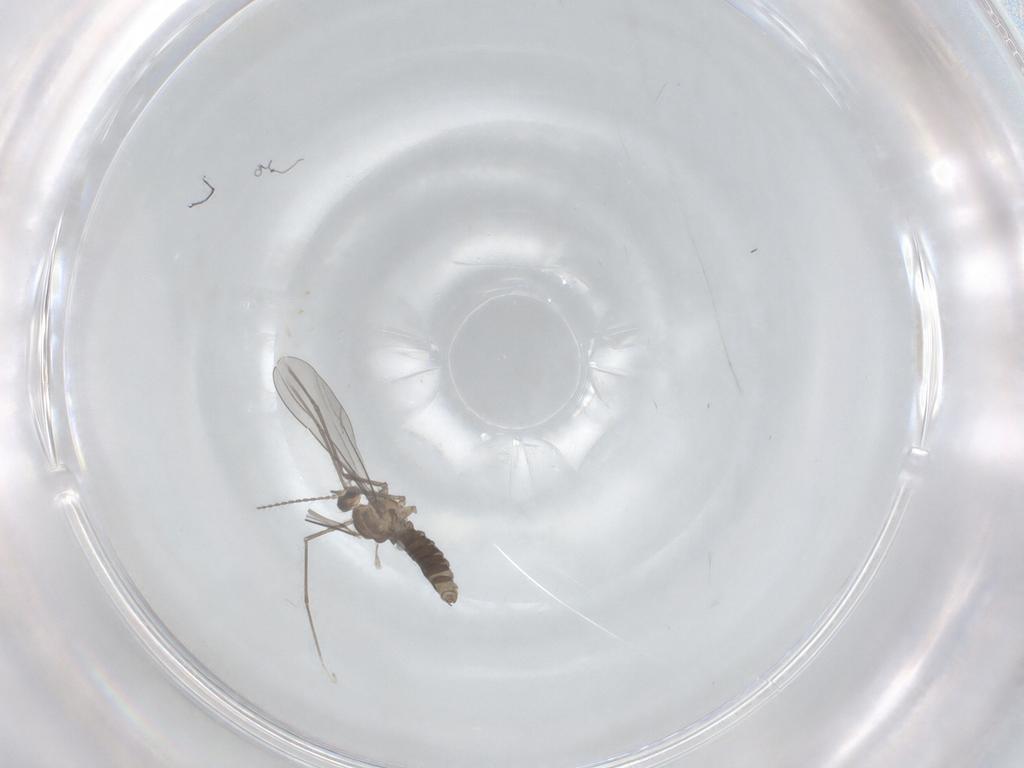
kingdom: Animalia
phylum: Arthropoda
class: Insecta
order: Diptera
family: Cecidomyiidae
